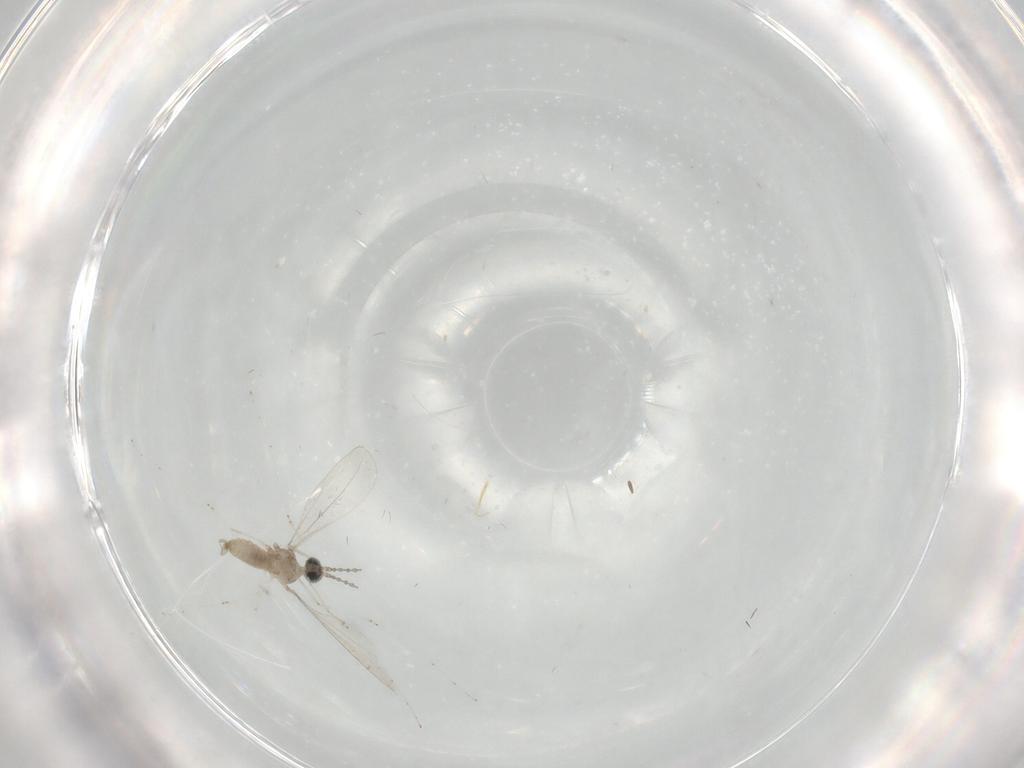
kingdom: Animalia
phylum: Arthropoda
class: Insecta
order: Diptera
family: Cecidomyiidae
